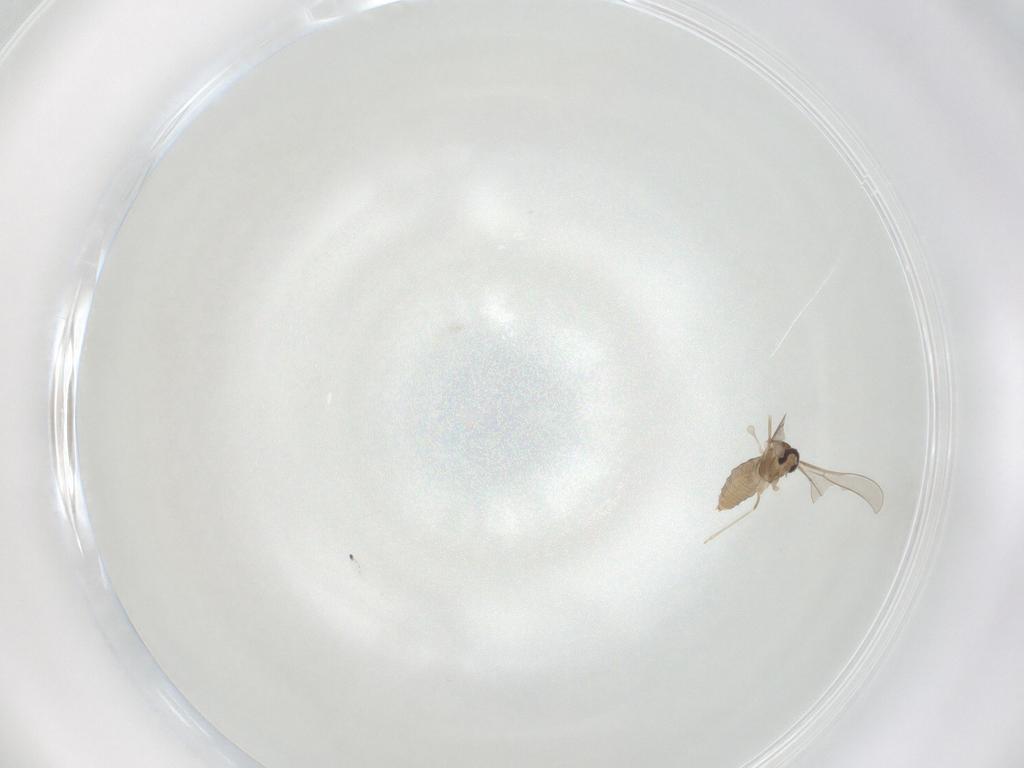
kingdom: Animalia
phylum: Arthropoda
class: Insecta
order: Diptera
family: Cecidomyiidae
